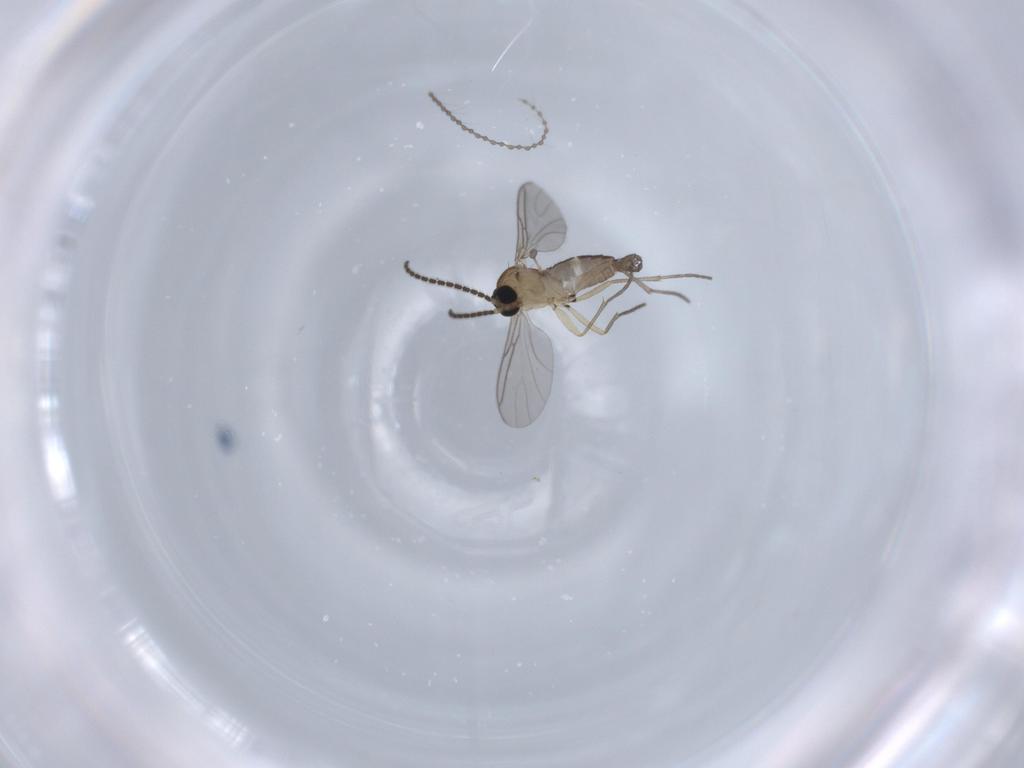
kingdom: Animalia
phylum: Arthropoda
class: Insecta
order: Diptera
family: Sciaridae
